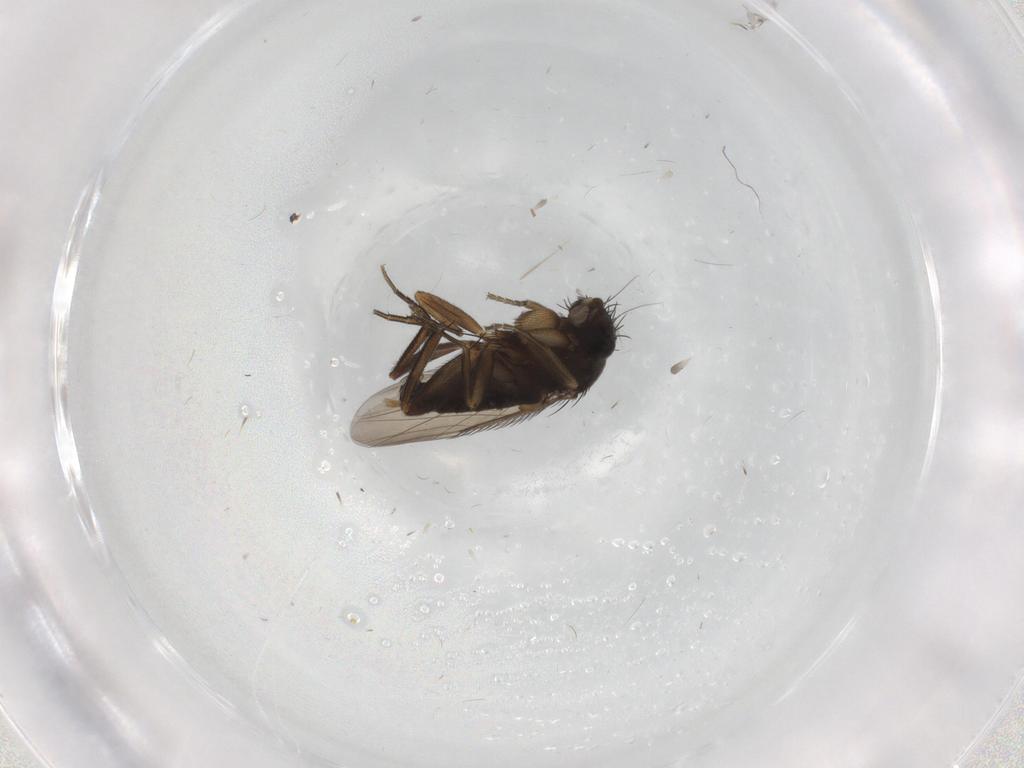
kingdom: Animalia
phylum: Arthropoda
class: Insecta
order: Diptera
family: Phoridae
